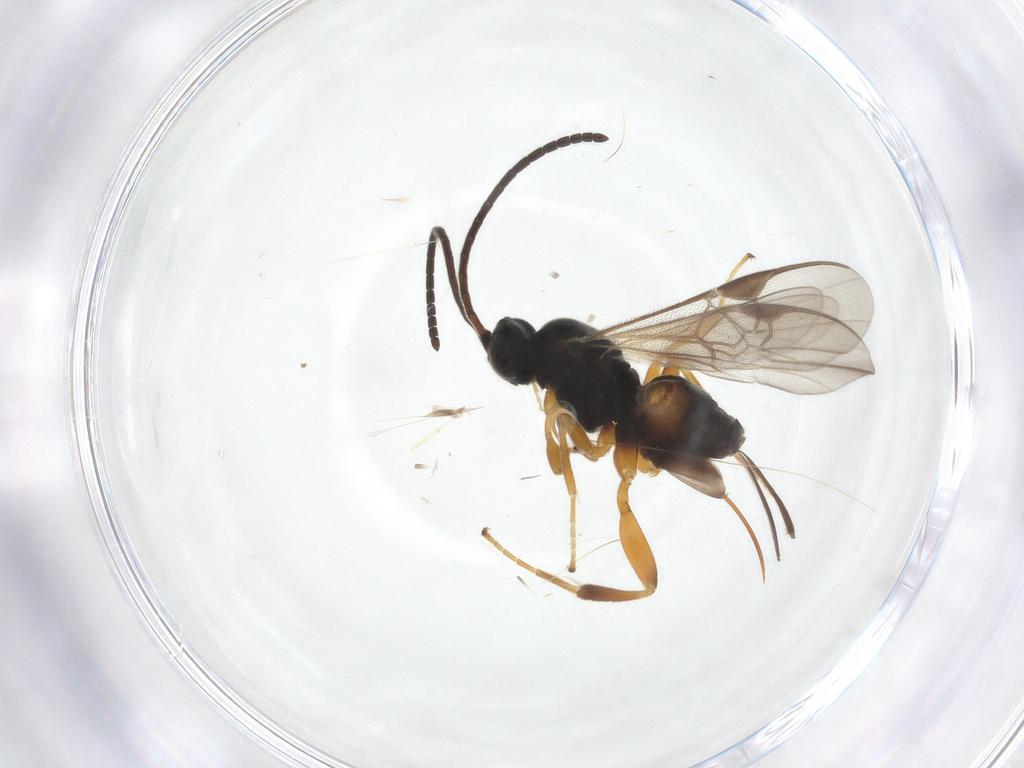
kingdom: Animalia
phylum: Arthropoda
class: Insecta
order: Hymenoptera
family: Braconidae
